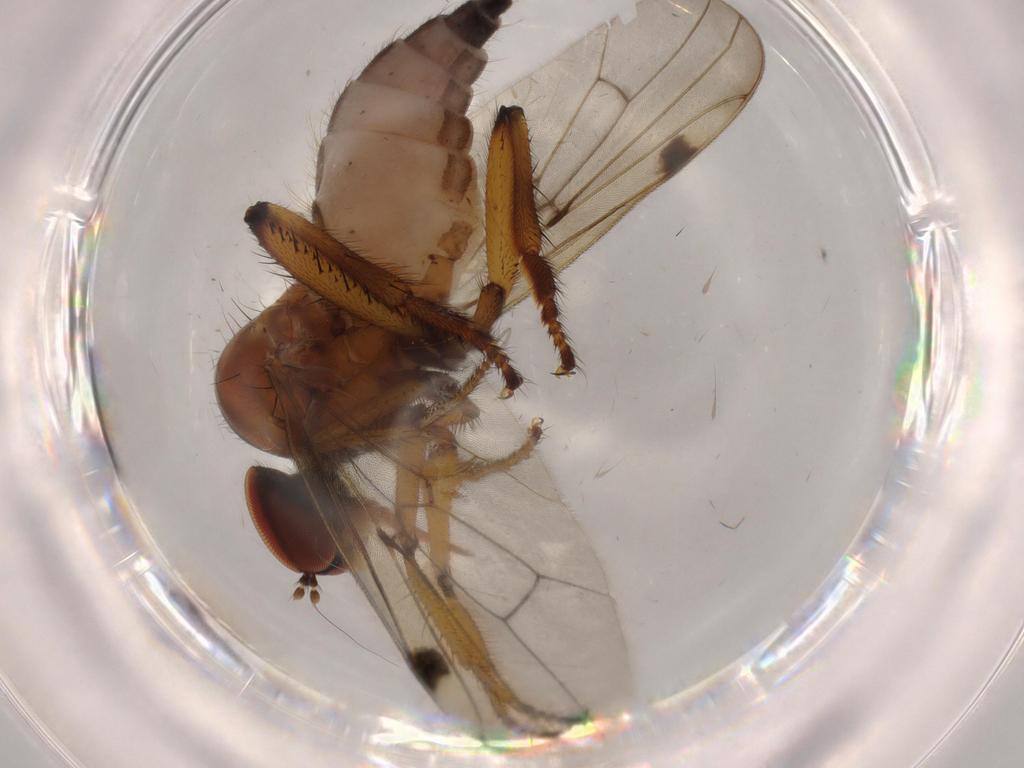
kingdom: Animalia
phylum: Arthropoda
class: Insecta
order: Diptera
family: Hybotidae
